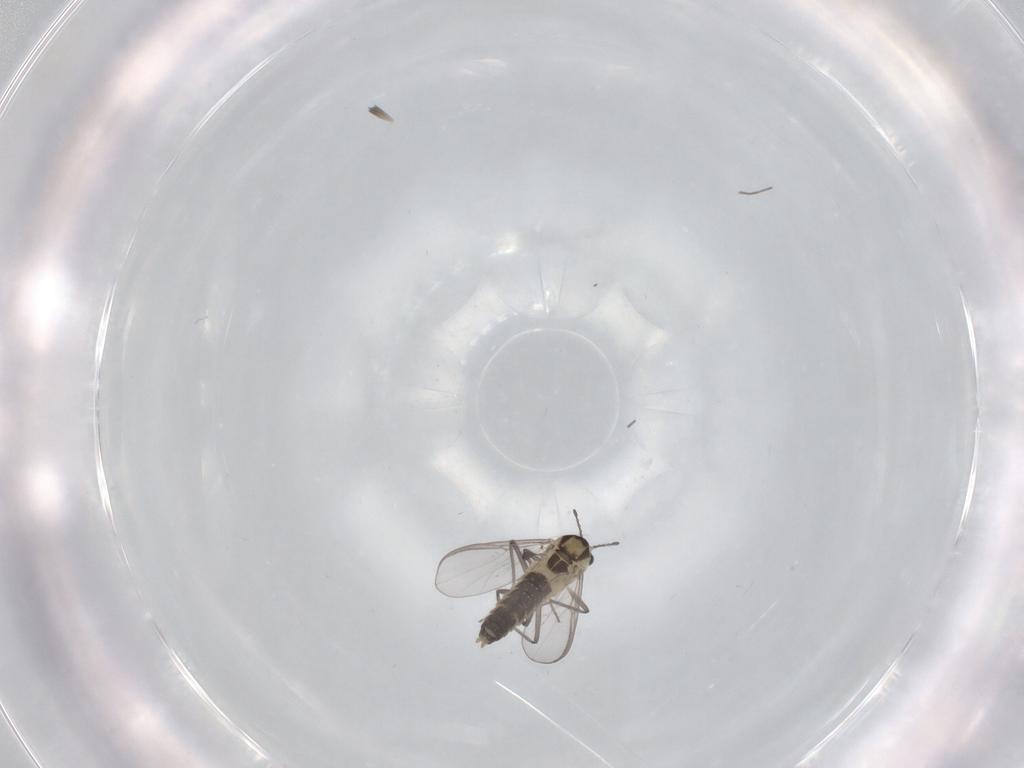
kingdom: Animalia
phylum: Arthropoda
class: Insecta
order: Diptera
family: Chironomidae
